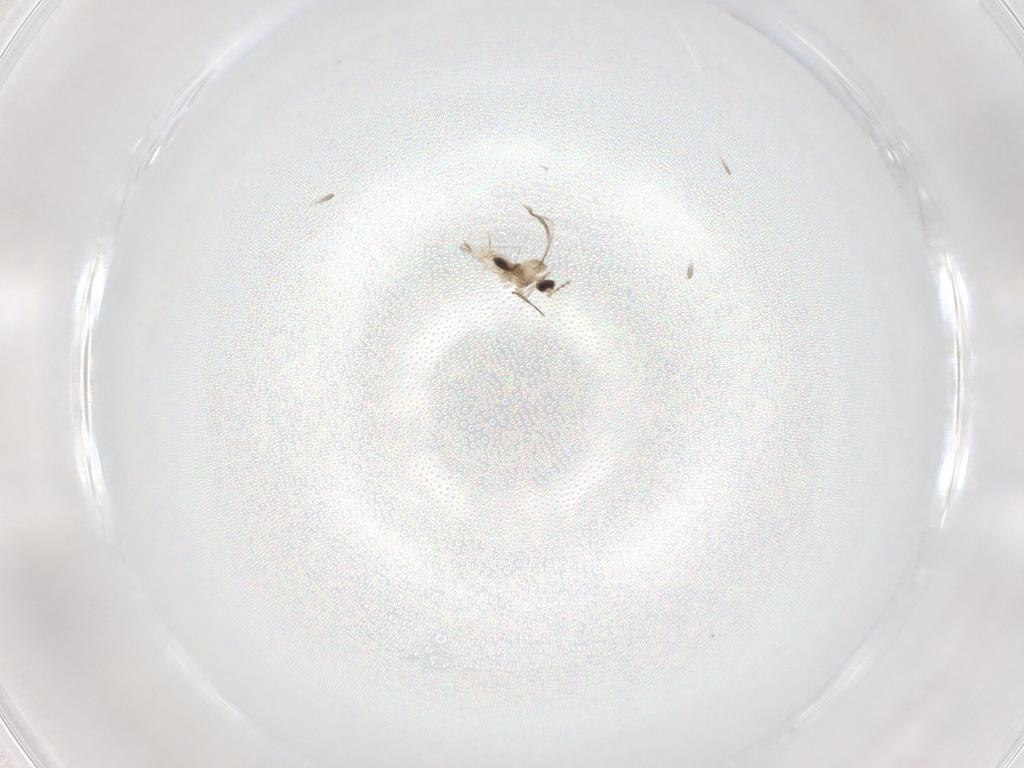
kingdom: Animalia
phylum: Arthropoda
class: Insecta
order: Diptera
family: Cecidomyiidae
